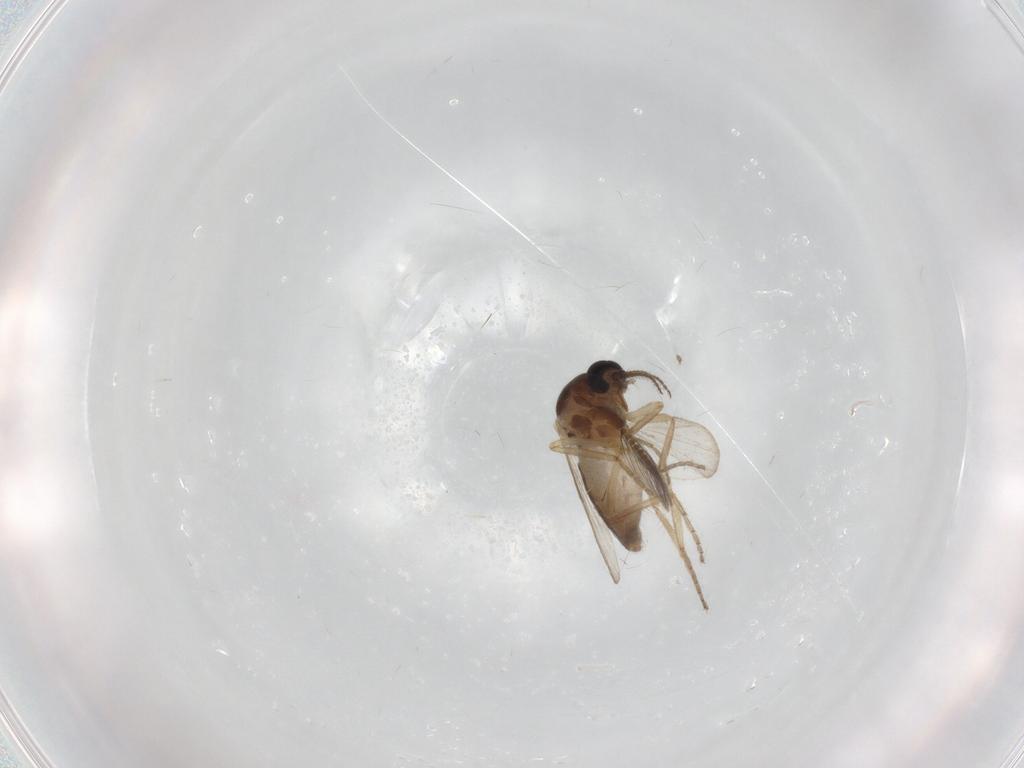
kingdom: Animalia
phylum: Arthropoda
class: Insecta
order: Diptera
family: Ceratopogonidae
